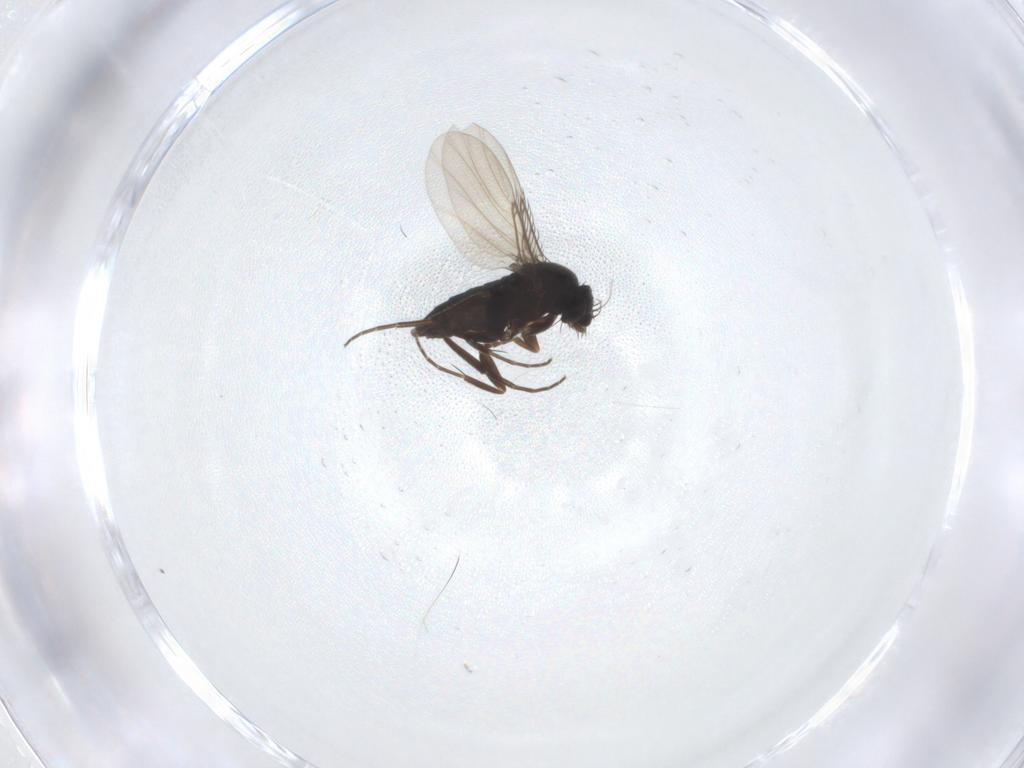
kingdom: Animalia
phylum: Arthropoda
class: Insecta
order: Diptera
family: Phoridae
